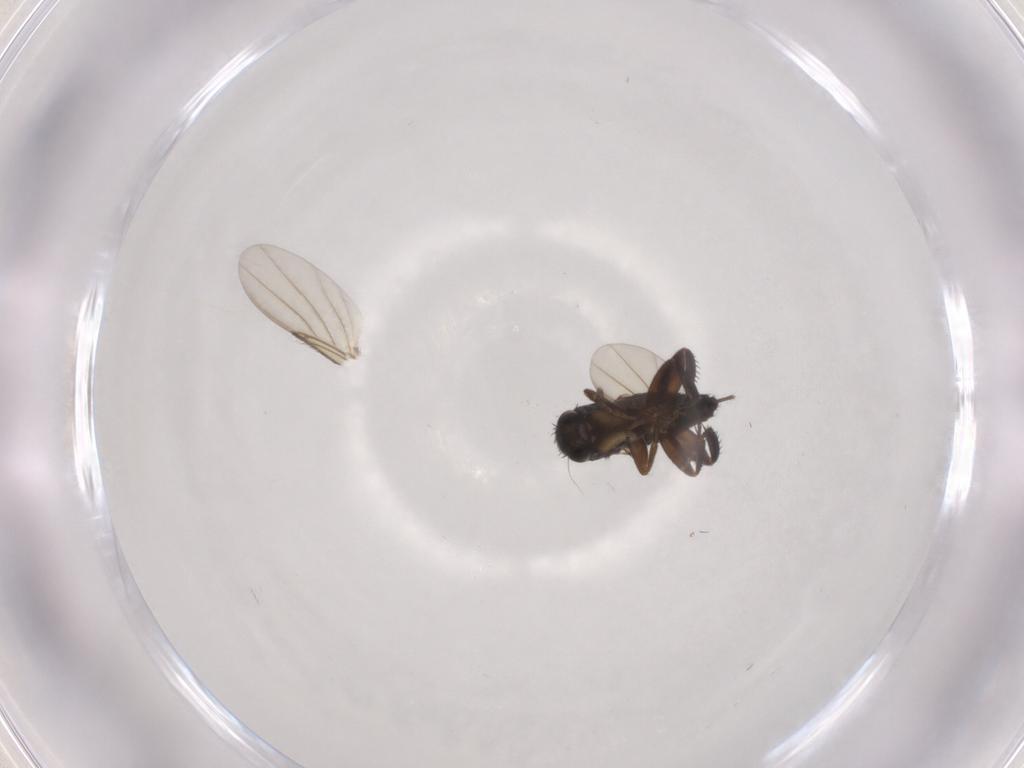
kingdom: Animalia
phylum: Arthropoda
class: Insecta
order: Diptera
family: Phoridae
